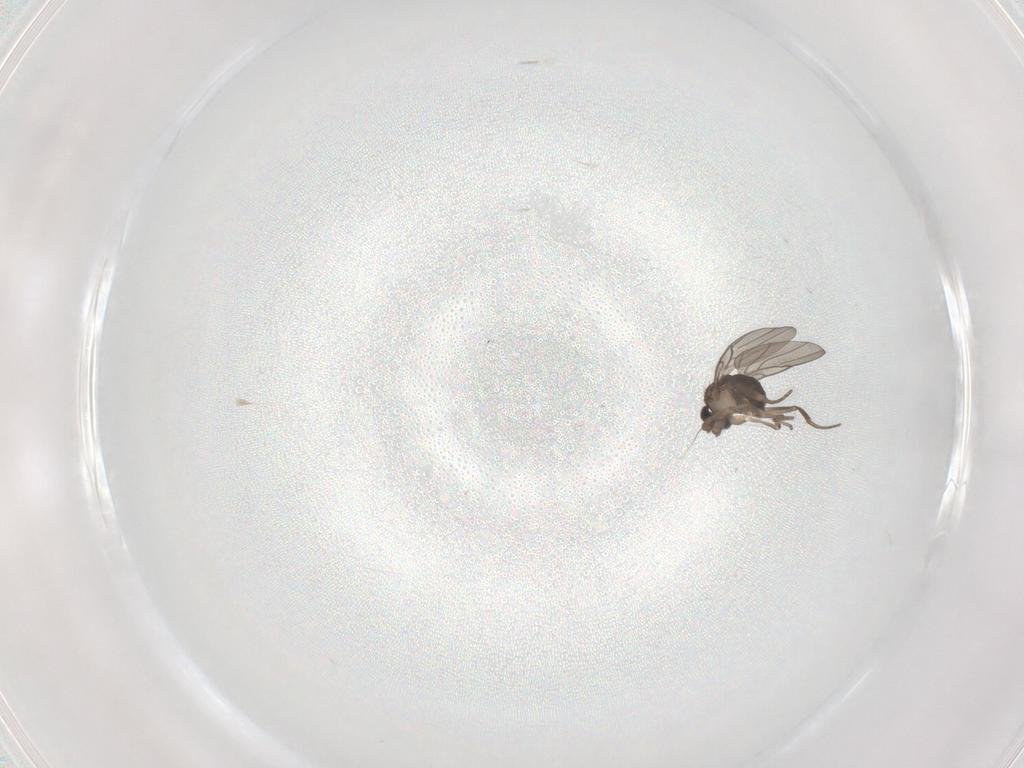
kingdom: Animalia
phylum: Arthropoda
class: Insecta
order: Diptera
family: Phoridae
